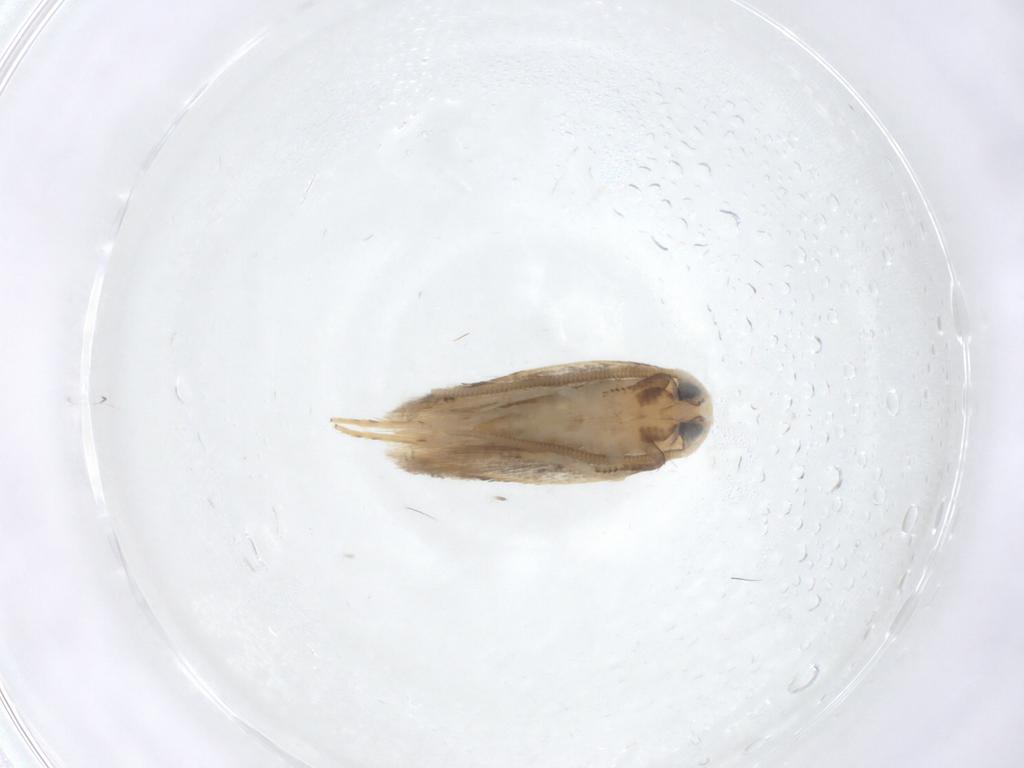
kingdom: Animalia
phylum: Arthropoda
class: Insecta
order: Lepidoptera
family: Opostegidae
